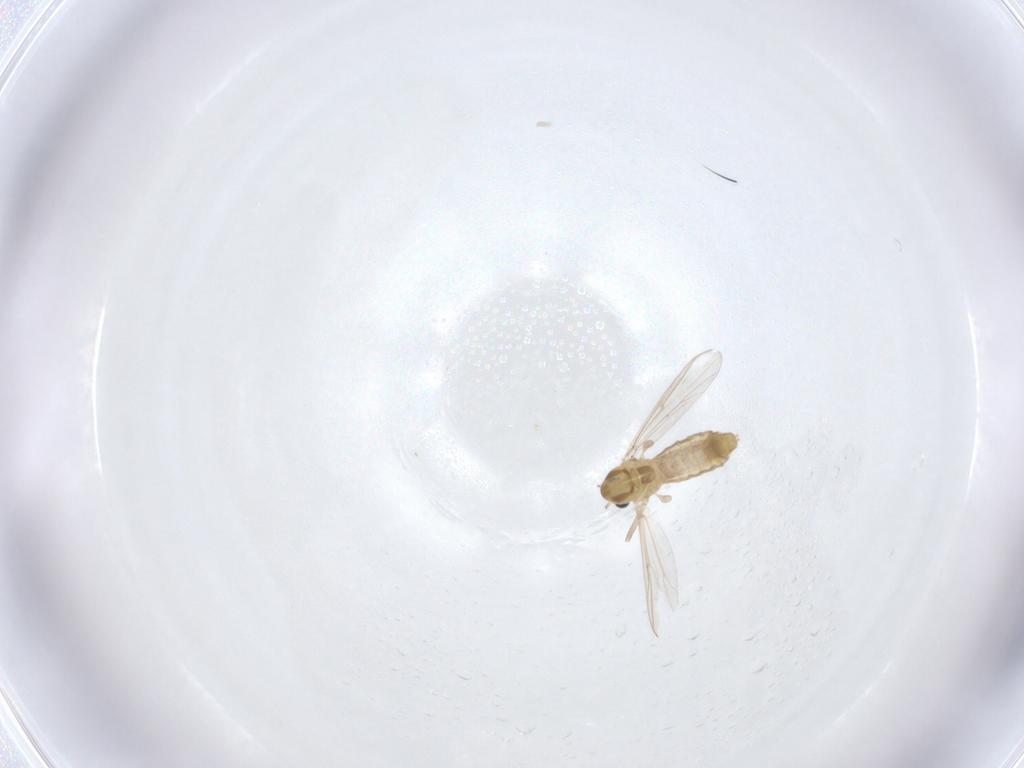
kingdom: Animalia
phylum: Arthropoda
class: Insecta
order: Diptera
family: Chironomidae
